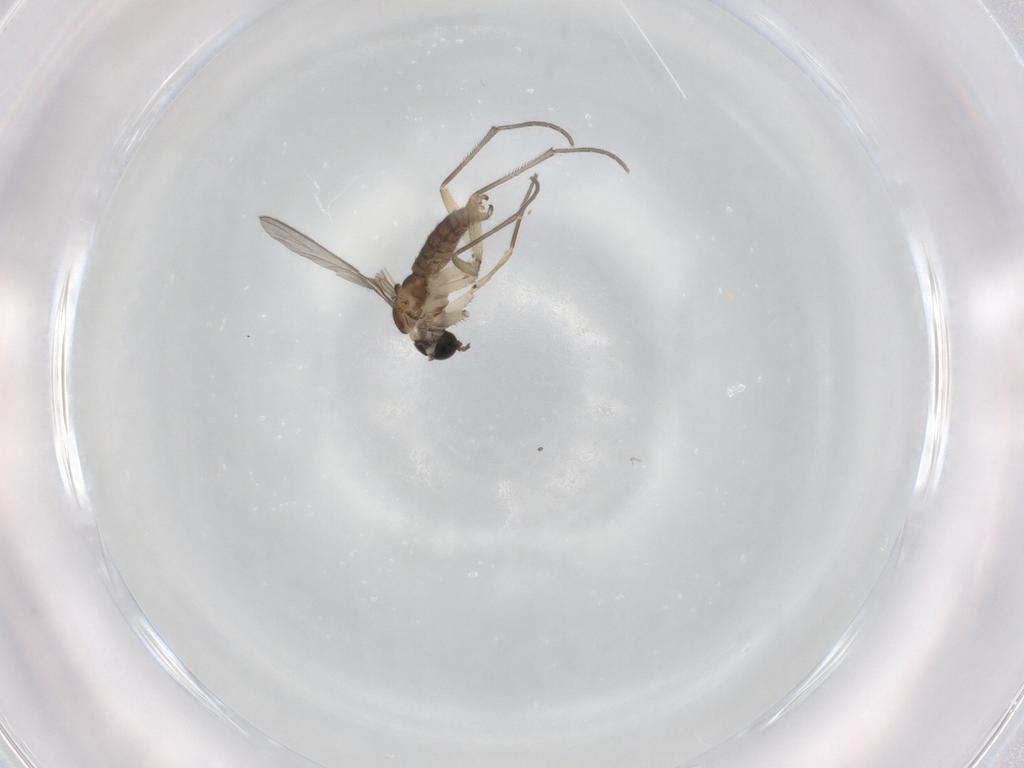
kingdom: Animalia
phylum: Arthropoda
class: Insecta
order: Diptera
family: Sciaridae
